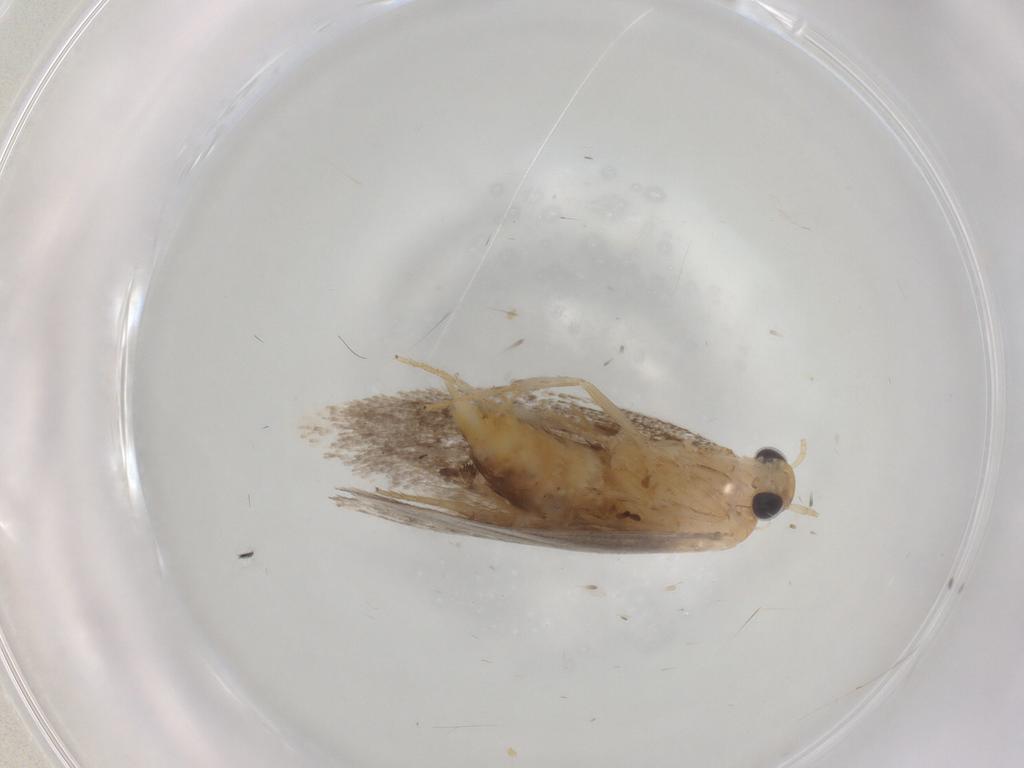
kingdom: Animalia
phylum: Arthropoda
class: Insecta
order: Lepidoptera
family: Oecophoridae
